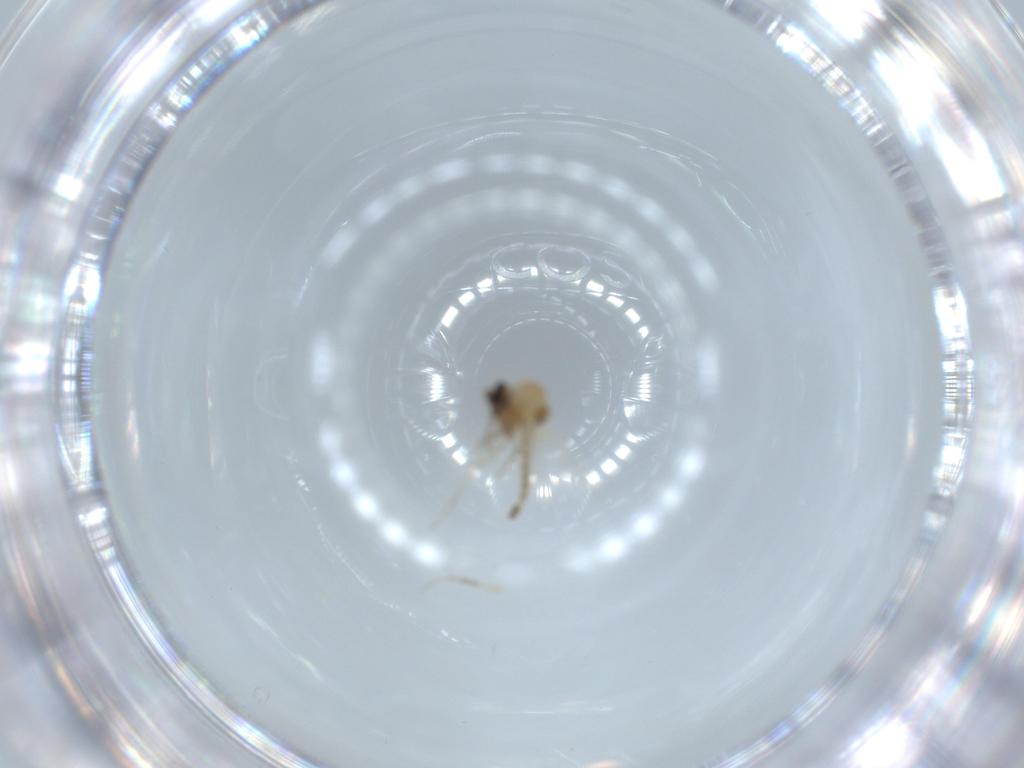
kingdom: Animalia
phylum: Arthropoda
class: Insecta
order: Diptera
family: Ceratopogonidae
